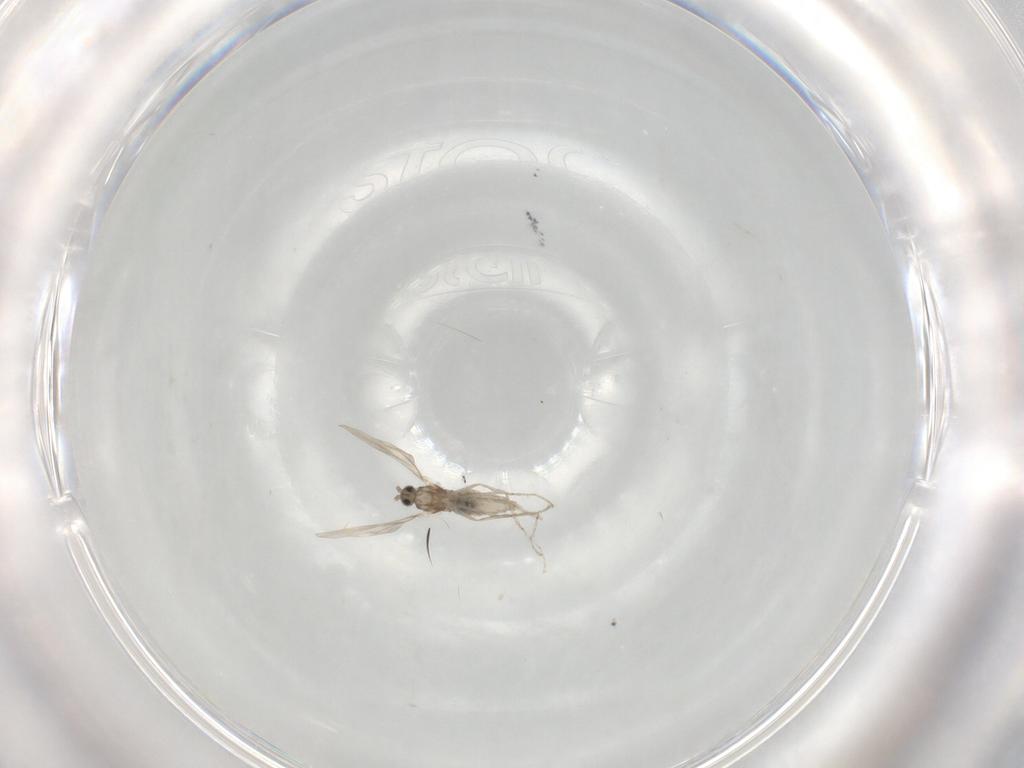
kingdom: Animalia
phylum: Arthropoda
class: Insecta
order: Diptera
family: Cecidomyiidae
